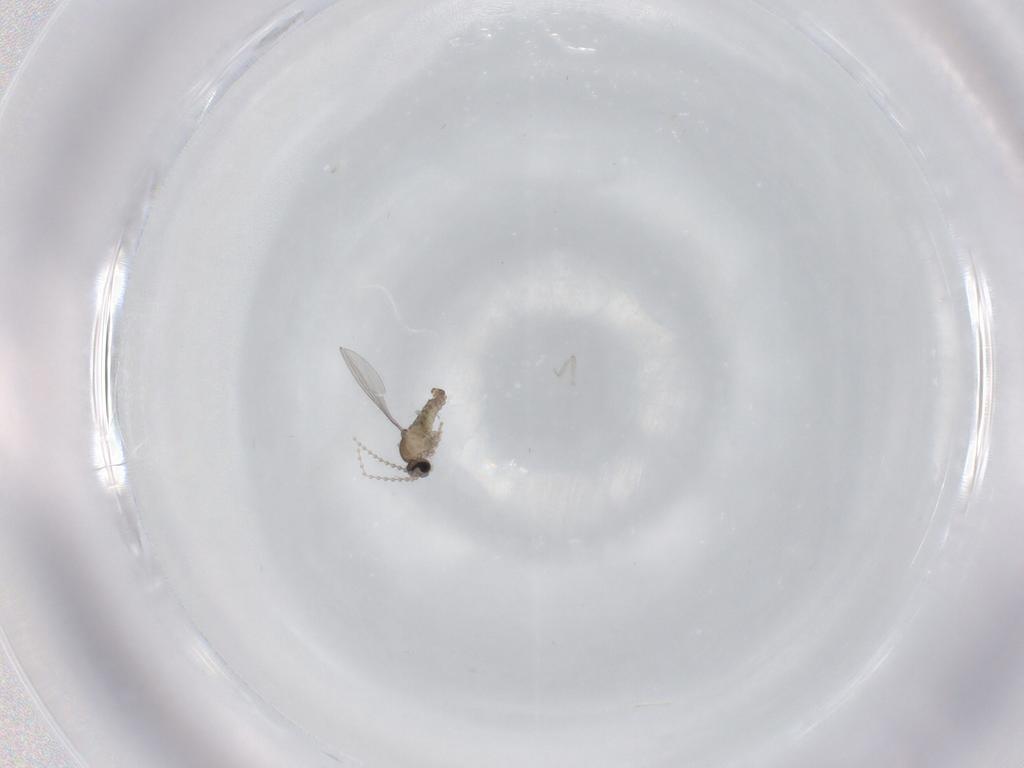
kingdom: Animalia
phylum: Arthropoda
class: Insecta
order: Diptera
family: Cecidomyiidae
